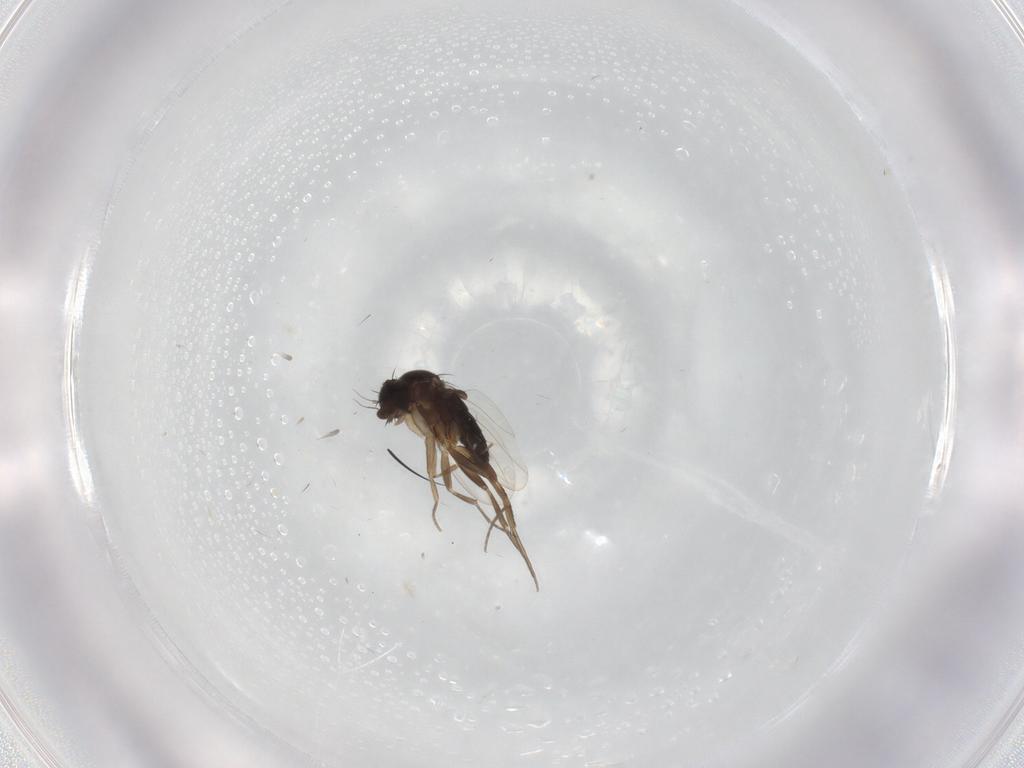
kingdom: Animalia
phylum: Arthropoda
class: Insecta
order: Diptera
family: Phoridae
